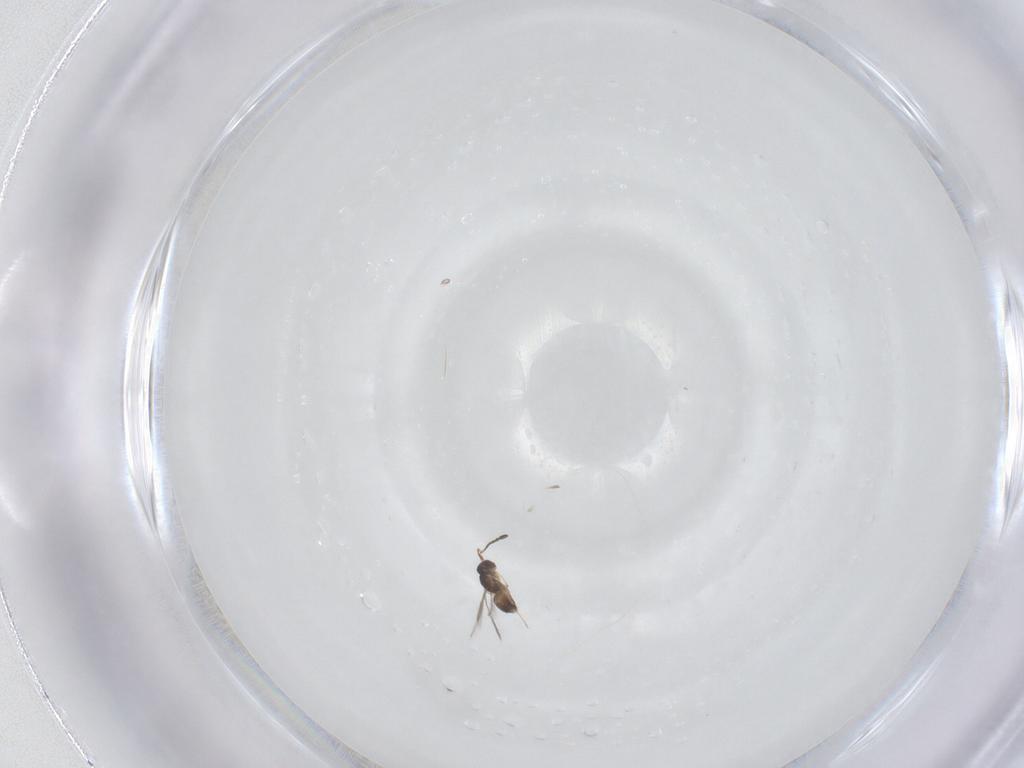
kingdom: Animalia
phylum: Arthropoda
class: Insecta
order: Hymenoptera
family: Mymaridae
